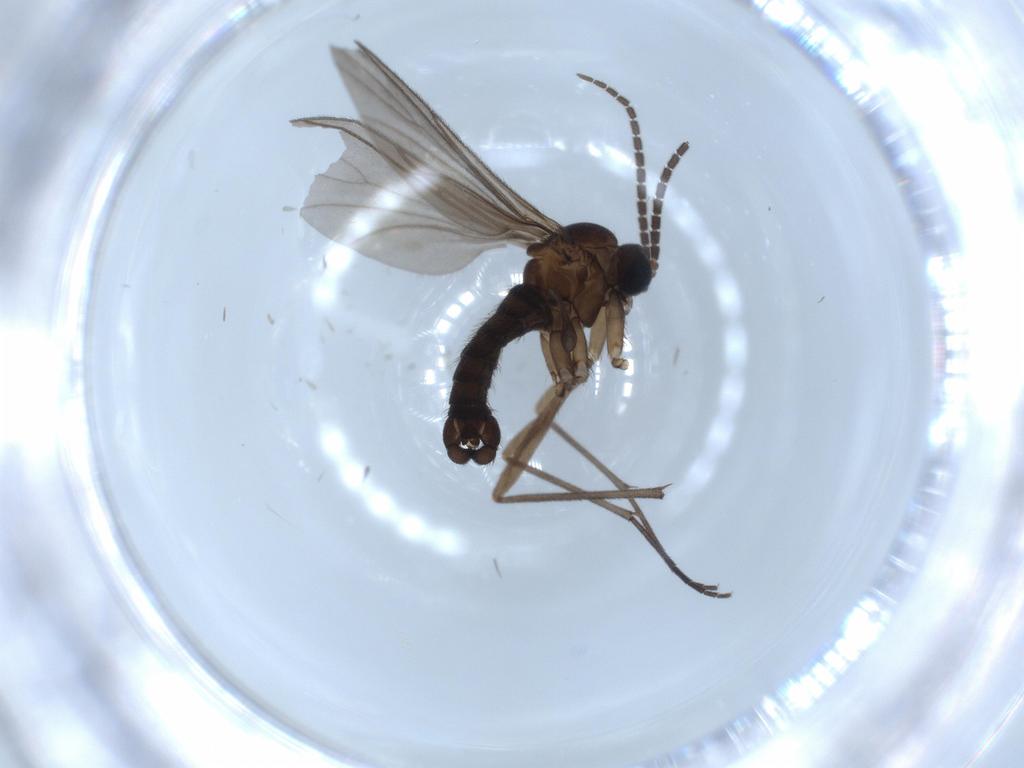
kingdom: Animalia
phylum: Arthropoda
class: Insecta
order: Diptera
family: Sciaridae
